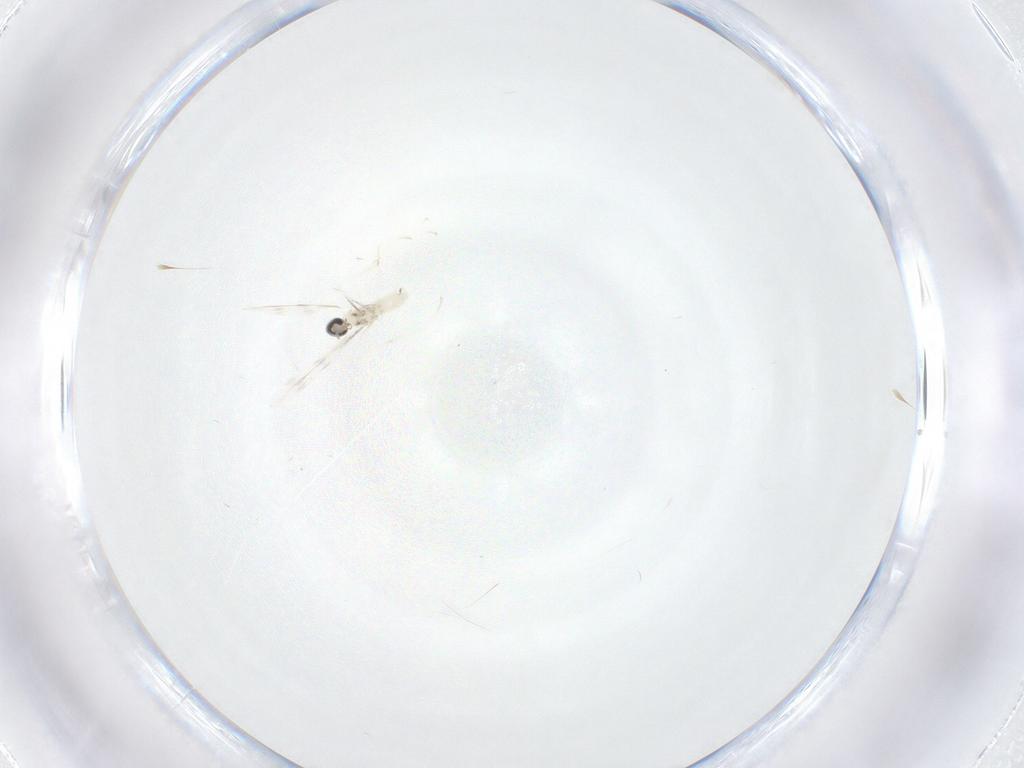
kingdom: Animalia
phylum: Arthropoda
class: Insecta
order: Diptera
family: Cecidomyiidae
